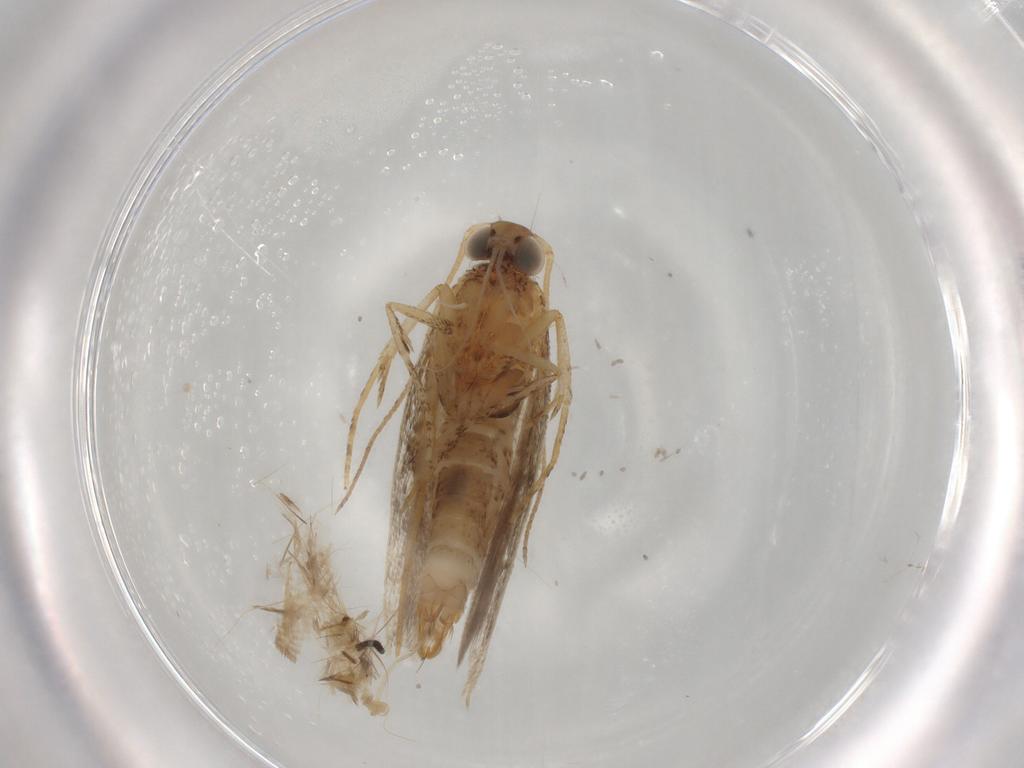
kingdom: Animalia
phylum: Arthropoda
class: Insecta
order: Lepidoptera
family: Plutellidae
